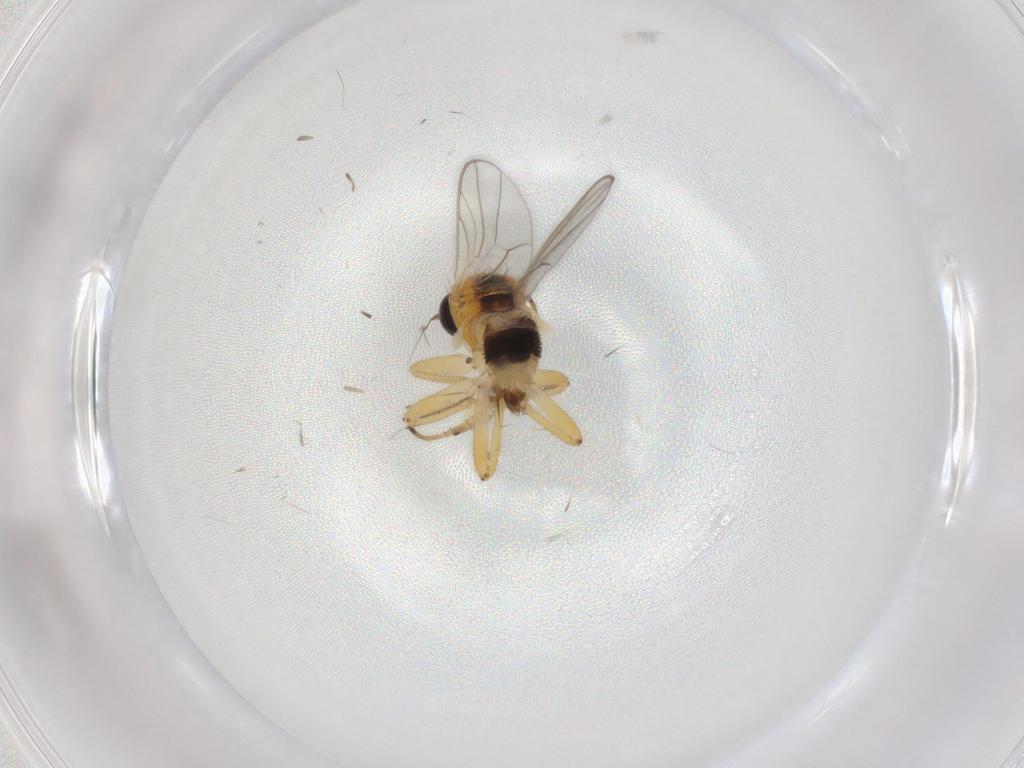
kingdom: Animalia
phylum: Arthropoda
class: Insecta
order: Diptera
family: Hybotidae
